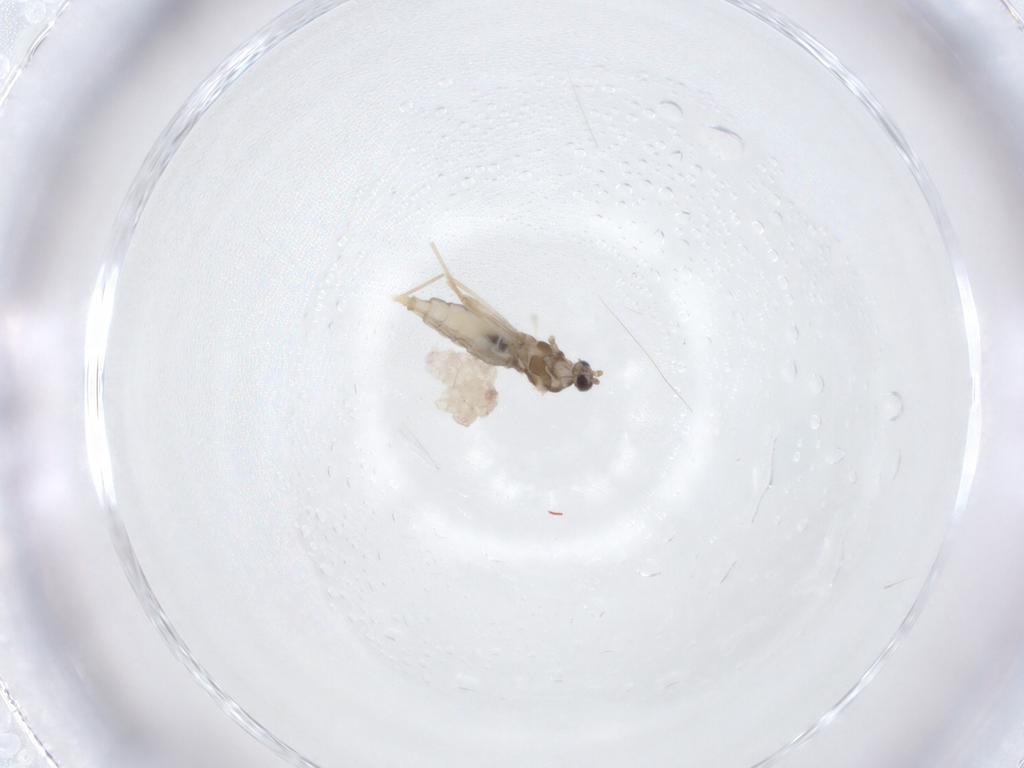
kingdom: Animalia
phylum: Arthropoda
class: Insecta
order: Diptera
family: Cecidomyiidae
